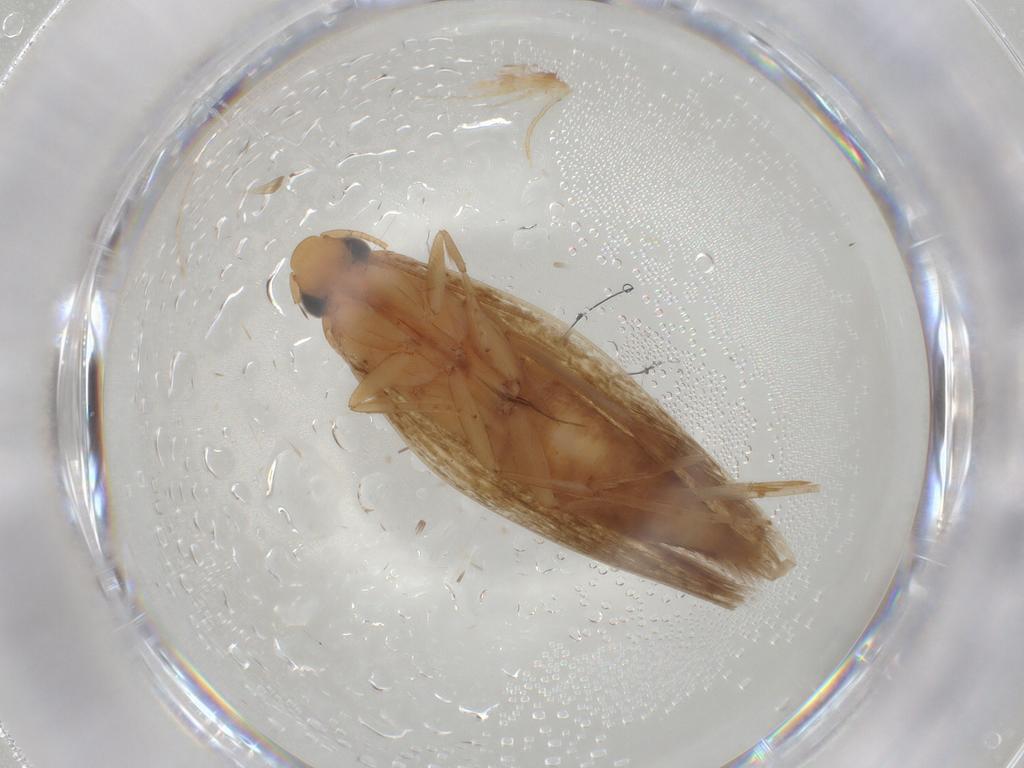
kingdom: Animalia
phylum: Arthropoda
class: Insecta
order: Lepidoptera
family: Tineidae
